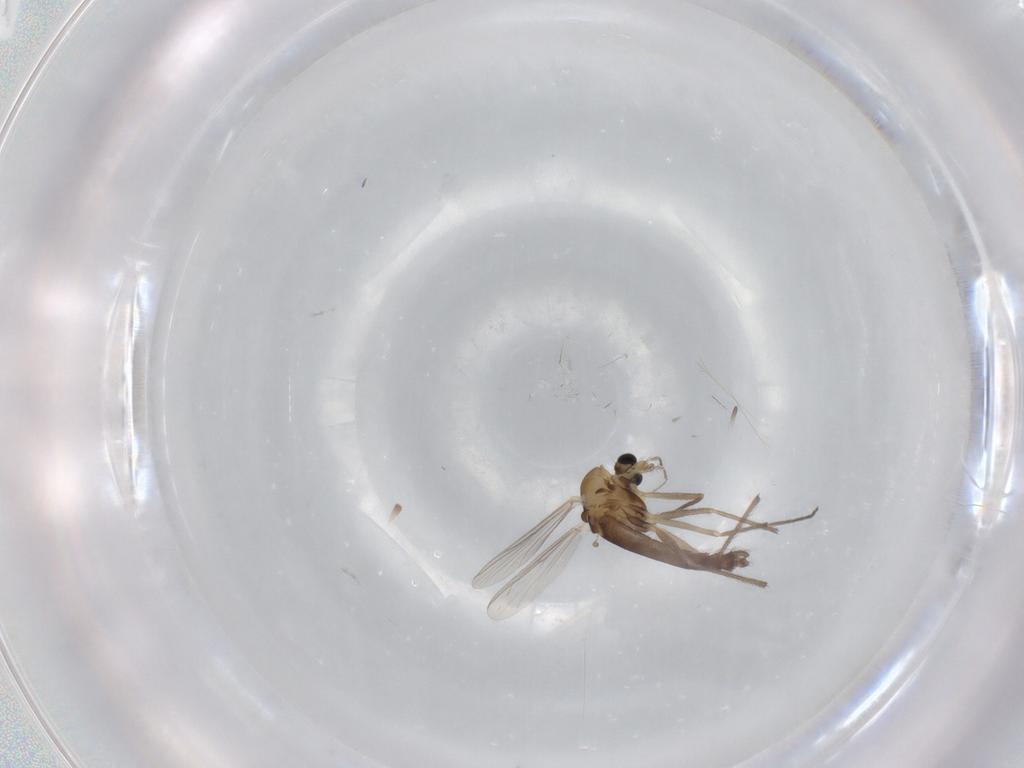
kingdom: Animalia
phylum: Arthropoda
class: Insecta
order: Diptera
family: Chironomidae
